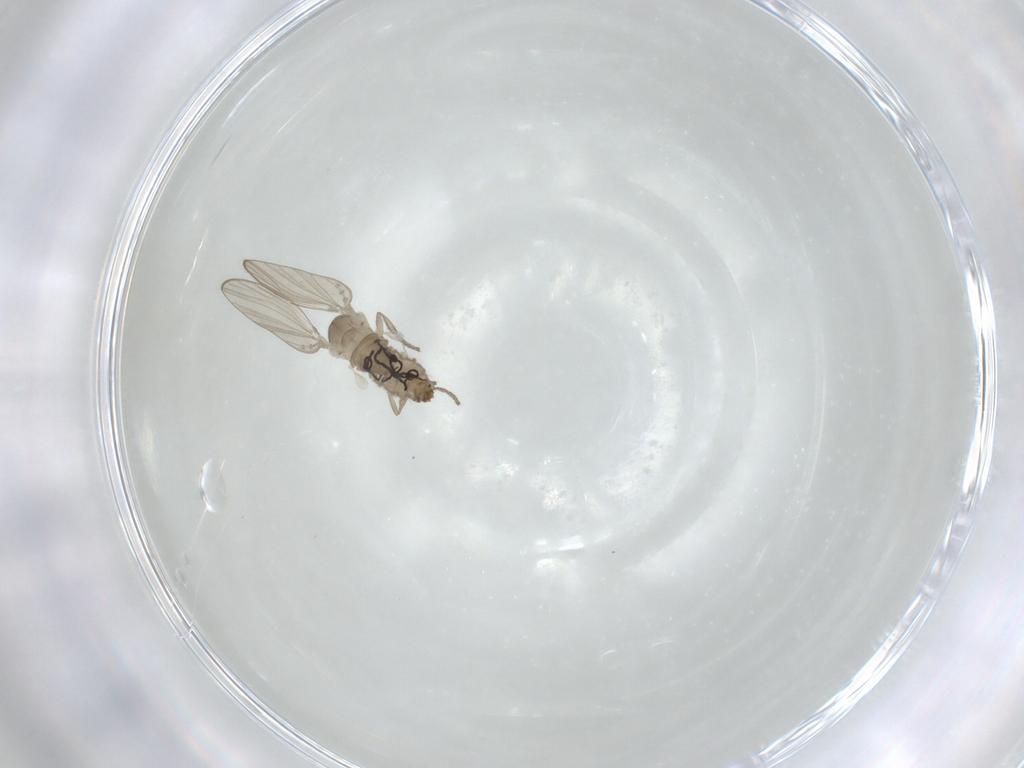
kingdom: Animalia
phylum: Arthropoda
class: Insecta
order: Diptera
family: Psychodidae
